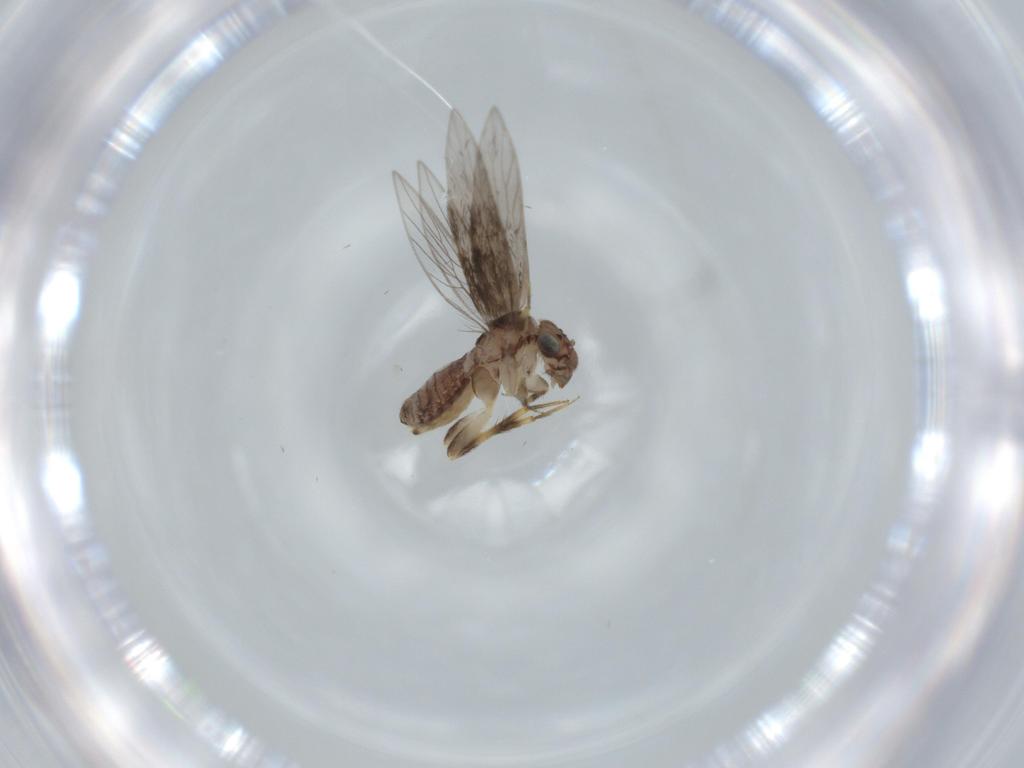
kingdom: Animalia
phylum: Arthropoda
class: Insecta
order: Psocodea
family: Lepidopsocidae
